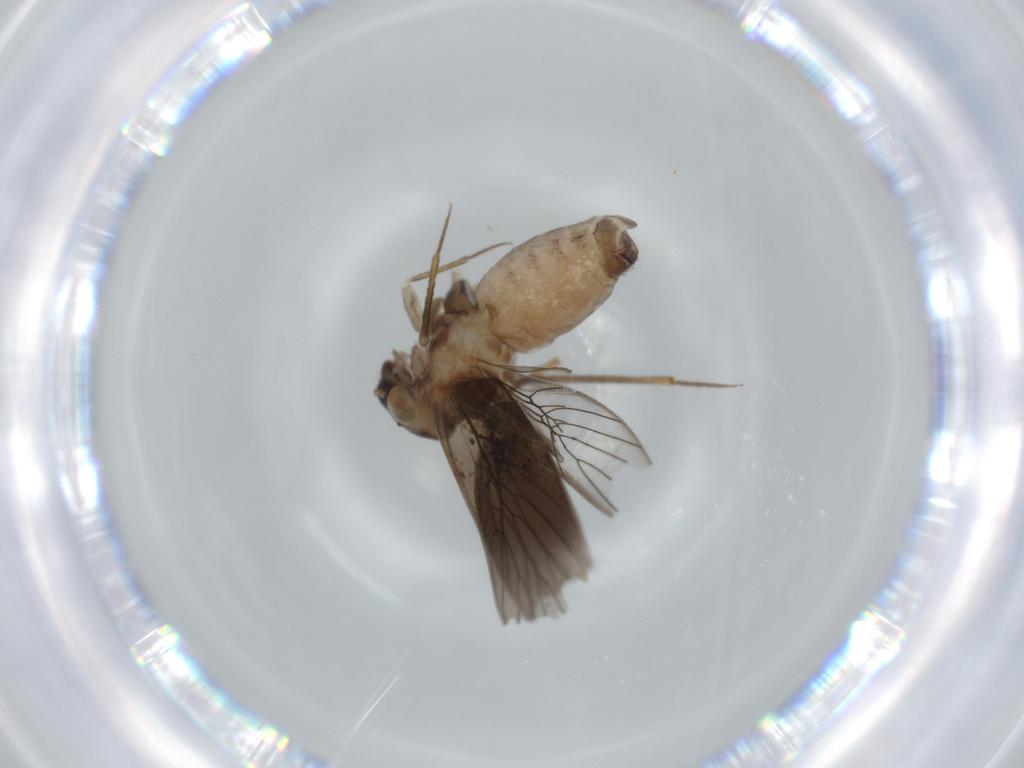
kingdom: Animalia
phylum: Arthropoda
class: Insecta
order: Psocodea
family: Lepidopsocidae
